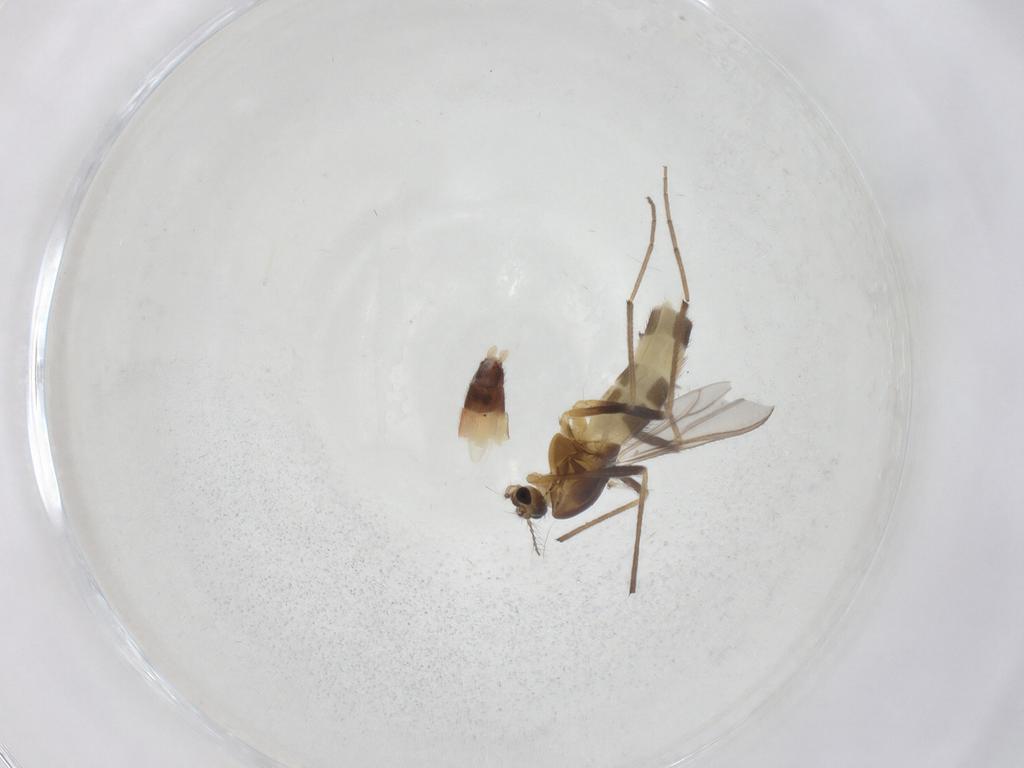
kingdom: Animalia
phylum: Arthropoda
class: Insecta
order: Diptera
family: Chironomidae
